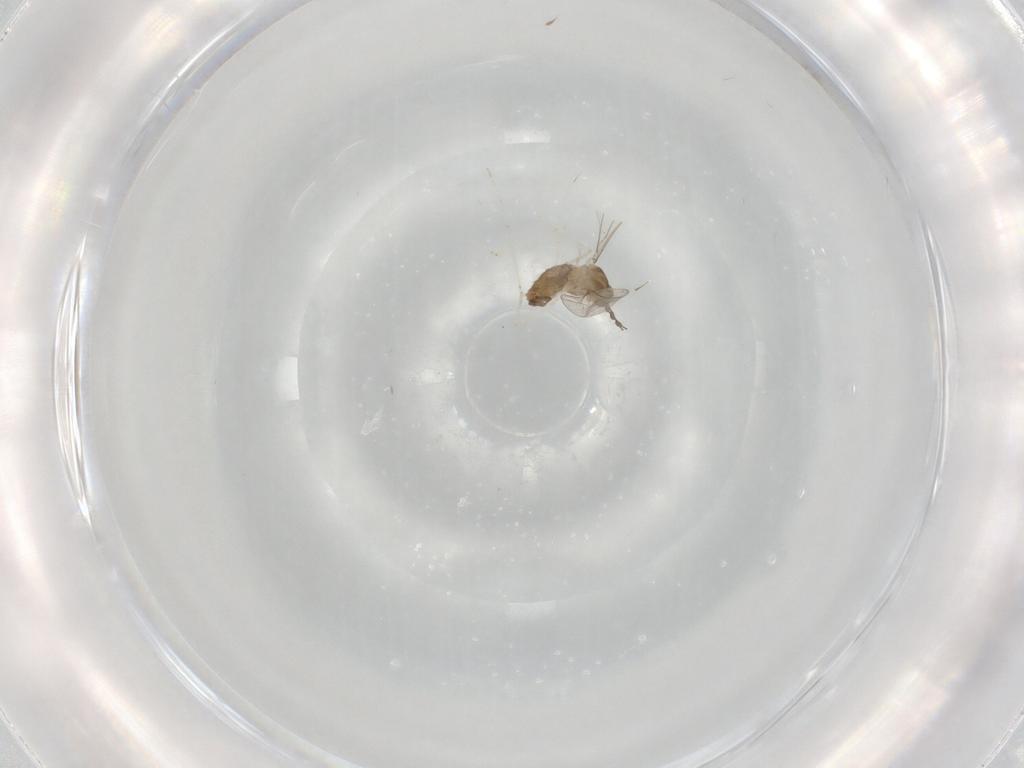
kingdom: Animalia
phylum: Arthropoda
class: Insecta
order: Diptera
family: Cecidomyiidae
